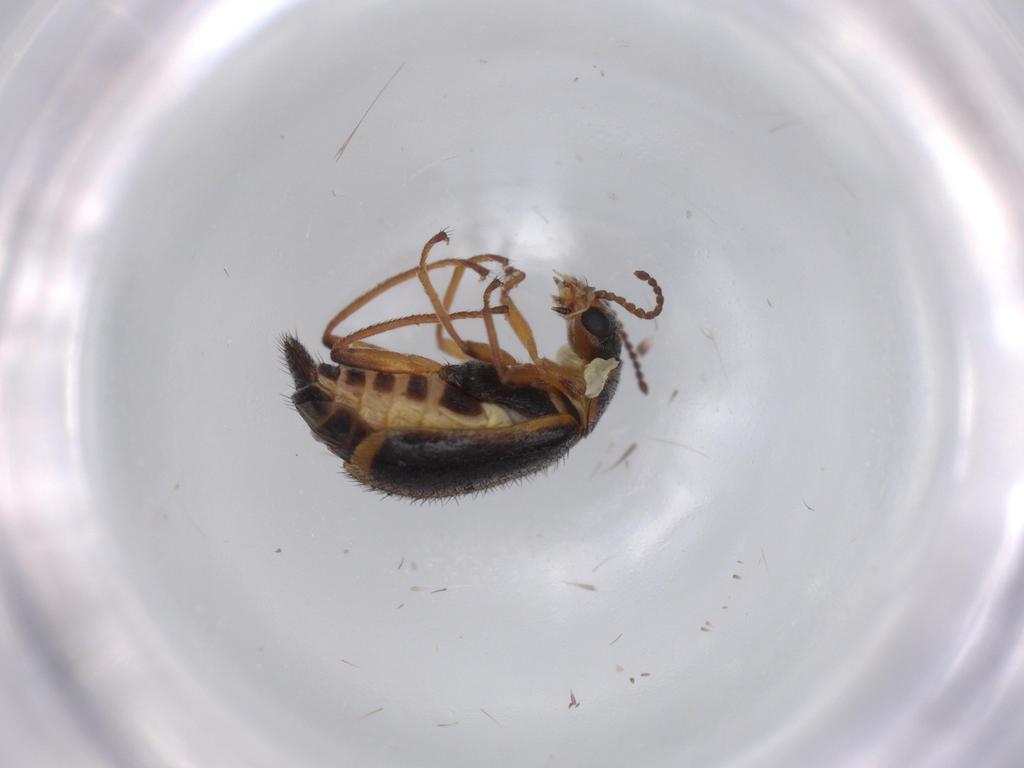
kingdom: Animalia
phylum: Arthropoda
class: Insecta
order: Coleoptera
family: Melyridae
